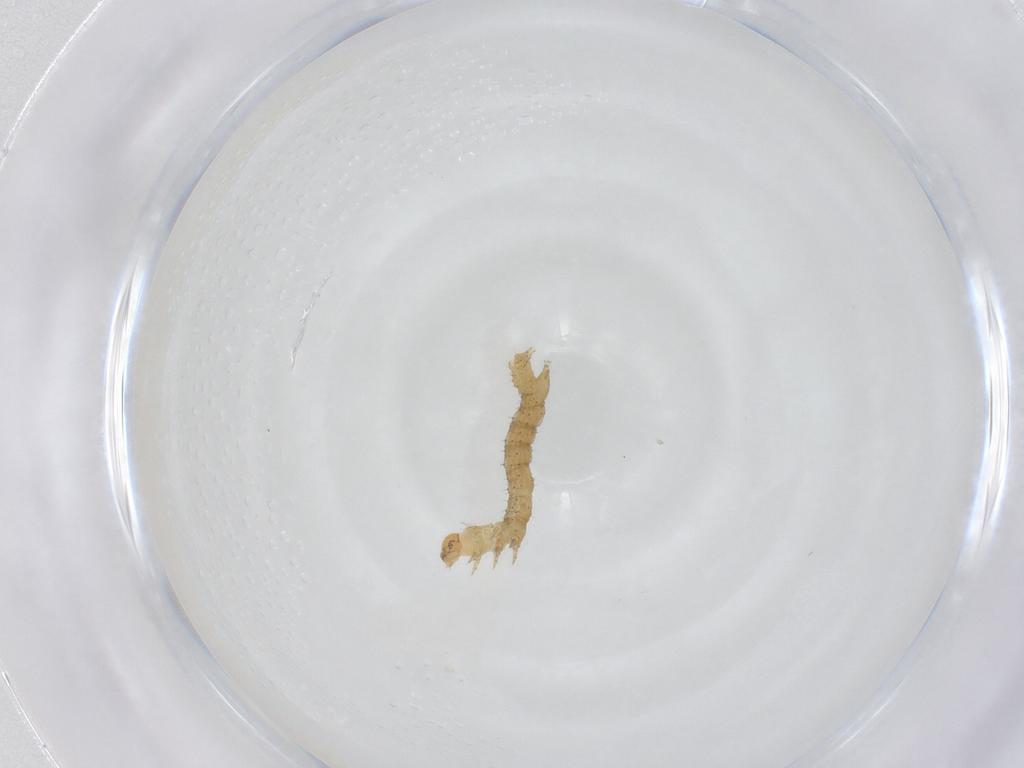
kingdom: Animalia
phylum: Arthropoda
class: Insecta
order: Lepidoptera
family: Geometridae
